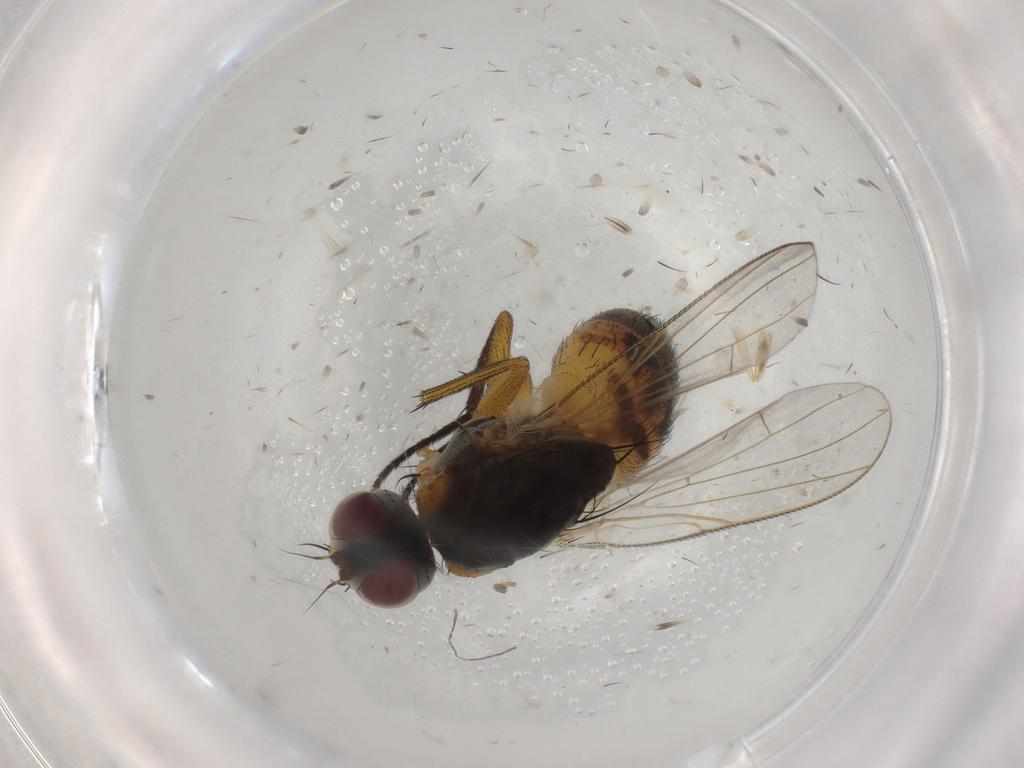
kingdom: Animalia
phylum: Arthropoda
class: Insecta
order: Diptera
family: Muscidae
